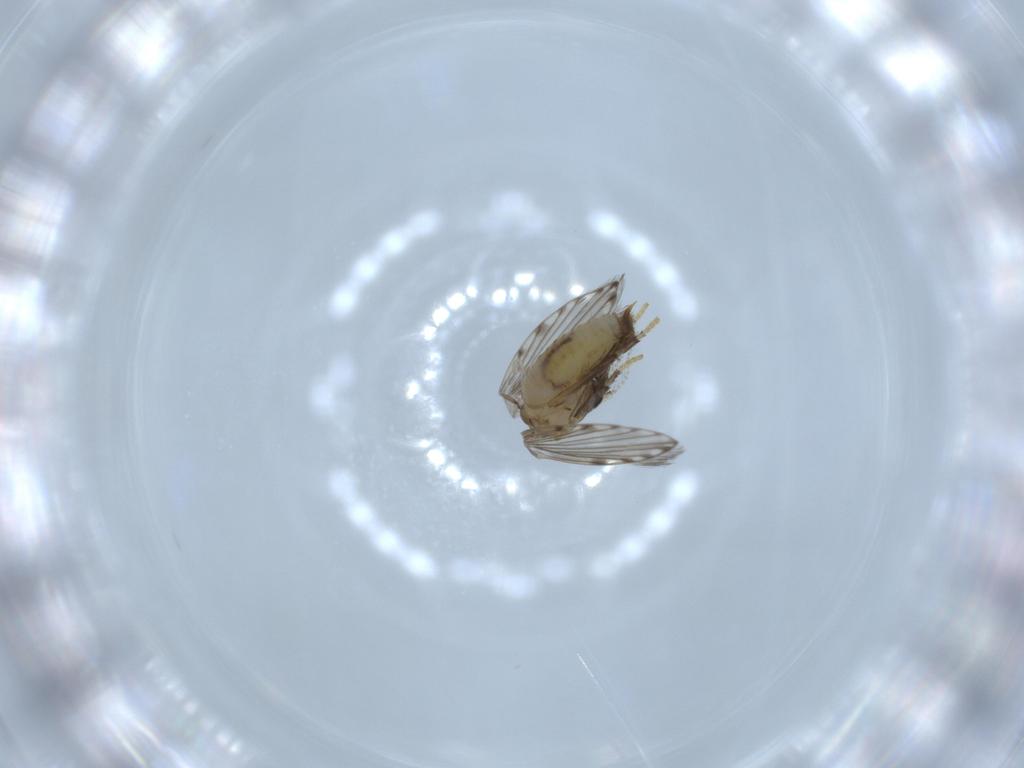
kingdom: Animalia
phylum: Arthropoda
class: Insecta
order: Diptera
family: Psychodidae
